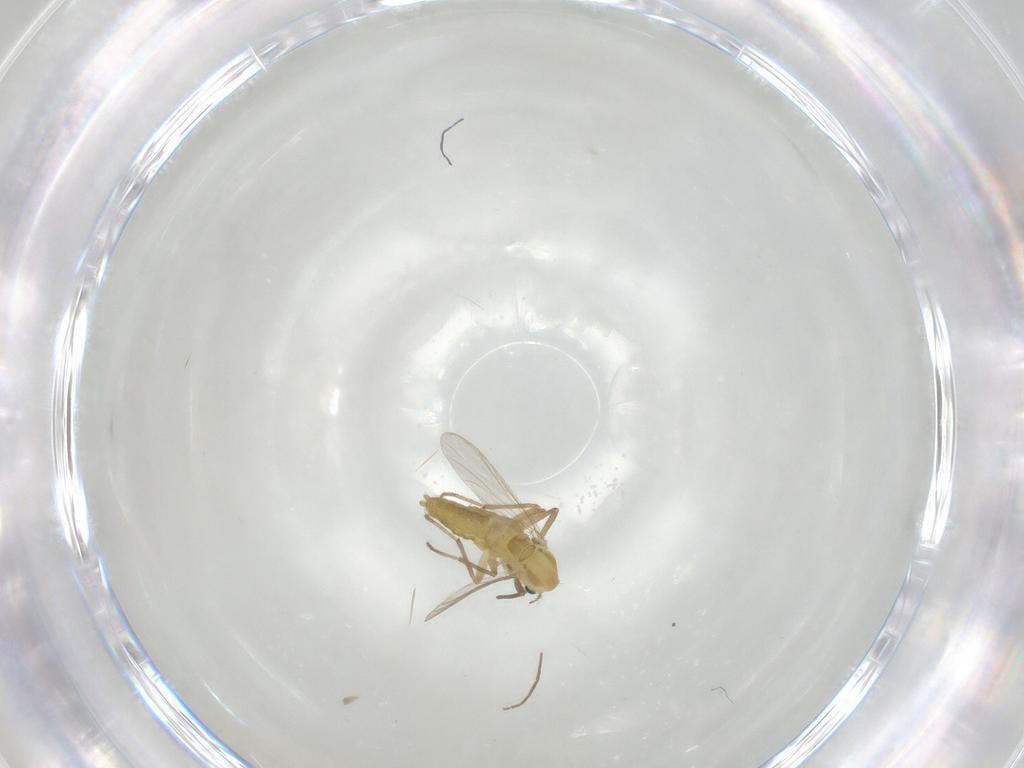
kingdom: Animalia
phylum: Arthropoda
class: Insecta
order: Diptera
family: Chironomidae
